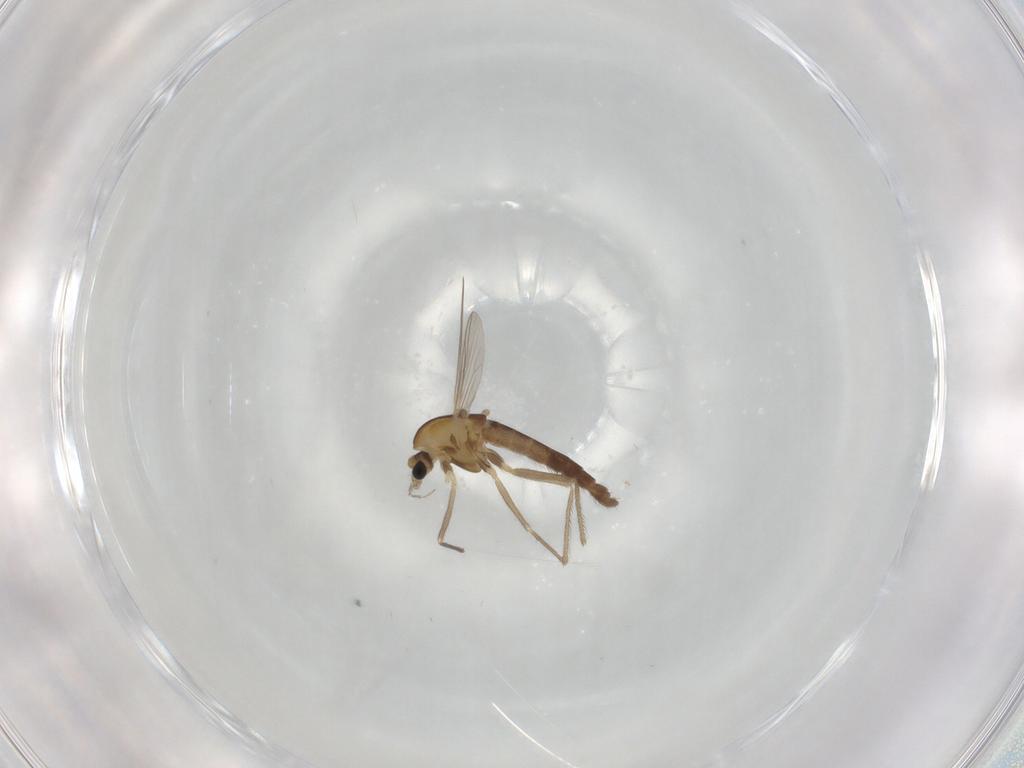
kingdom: Animalia
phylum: Arthropoda
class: Insecta
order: Diptera
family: Chironomidae
